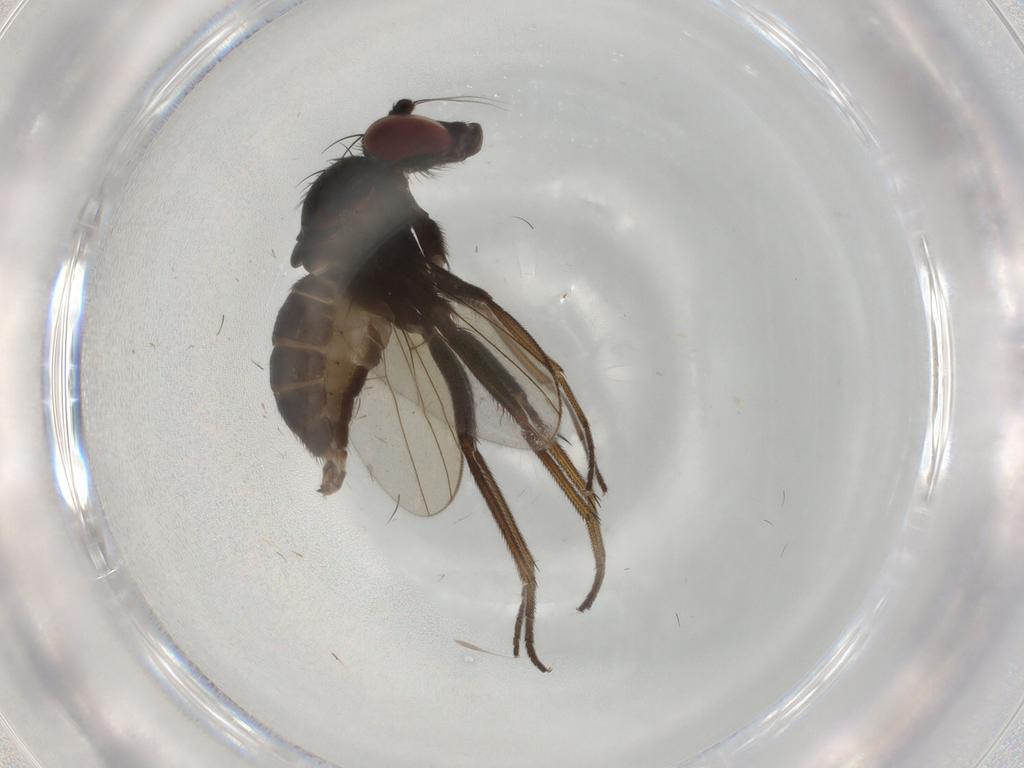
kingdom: Animalia
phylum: Arthropoda
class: Insecta
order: Diptera
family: Dolichopodidae
